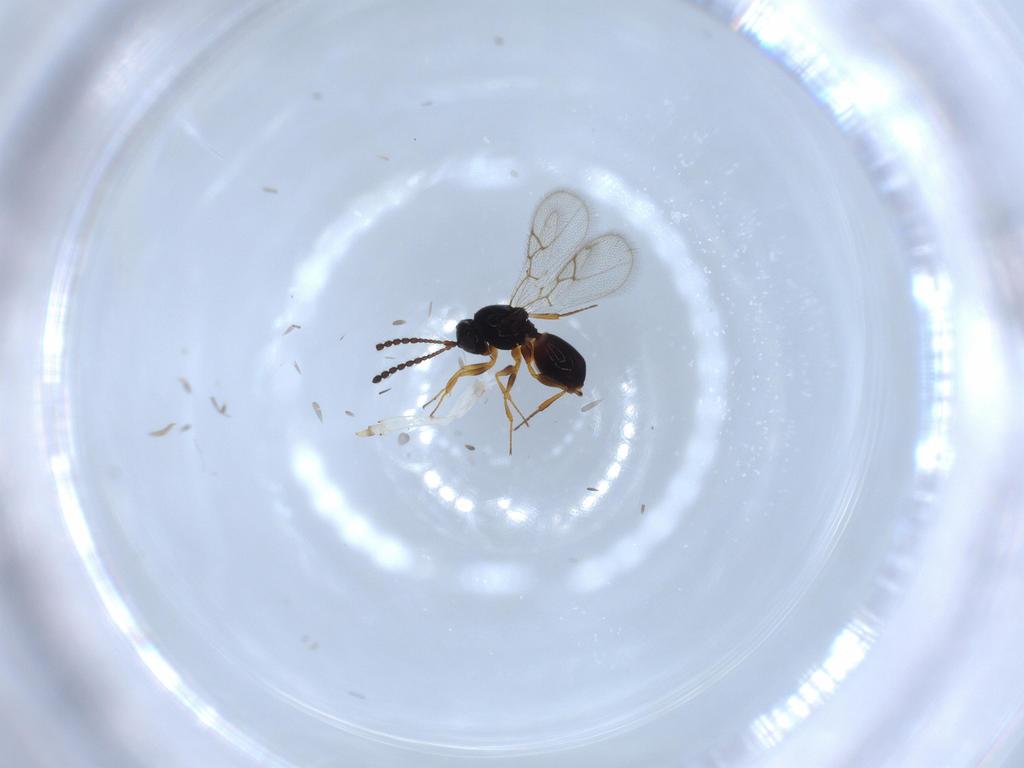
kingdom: Animalia
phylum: Arthropoda
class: Insecta
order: Hymenoptera
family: Figitidae
